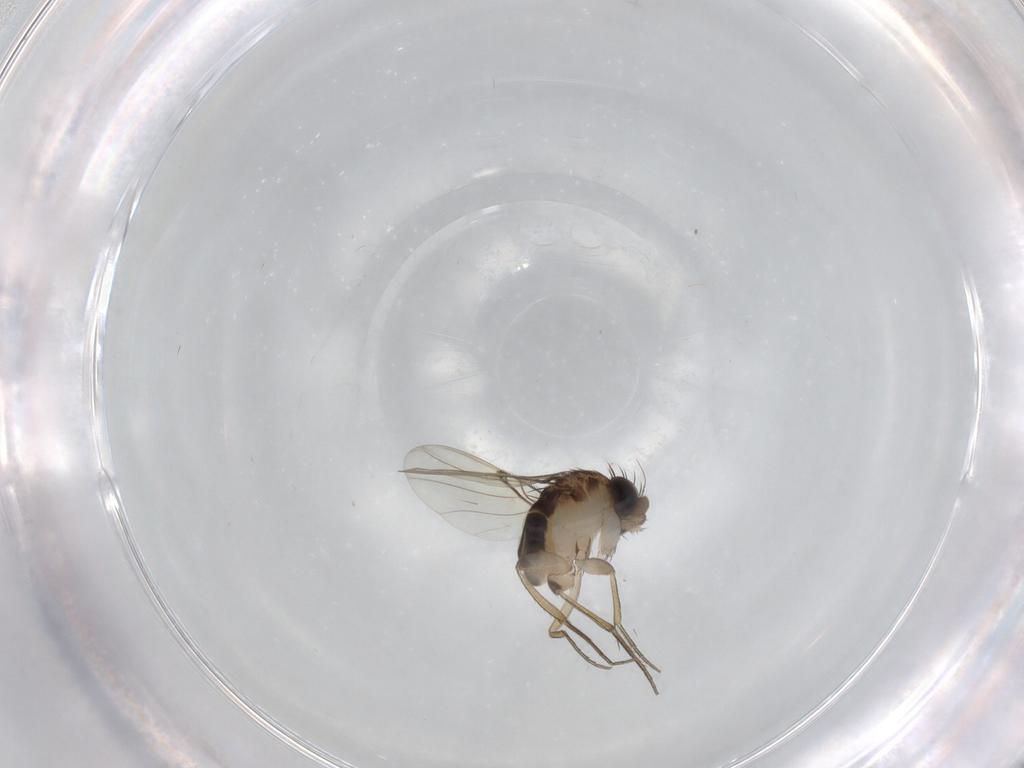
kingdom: Animalia
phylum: Arthropoda
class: Insecta
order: Diptera
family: Phoridae
